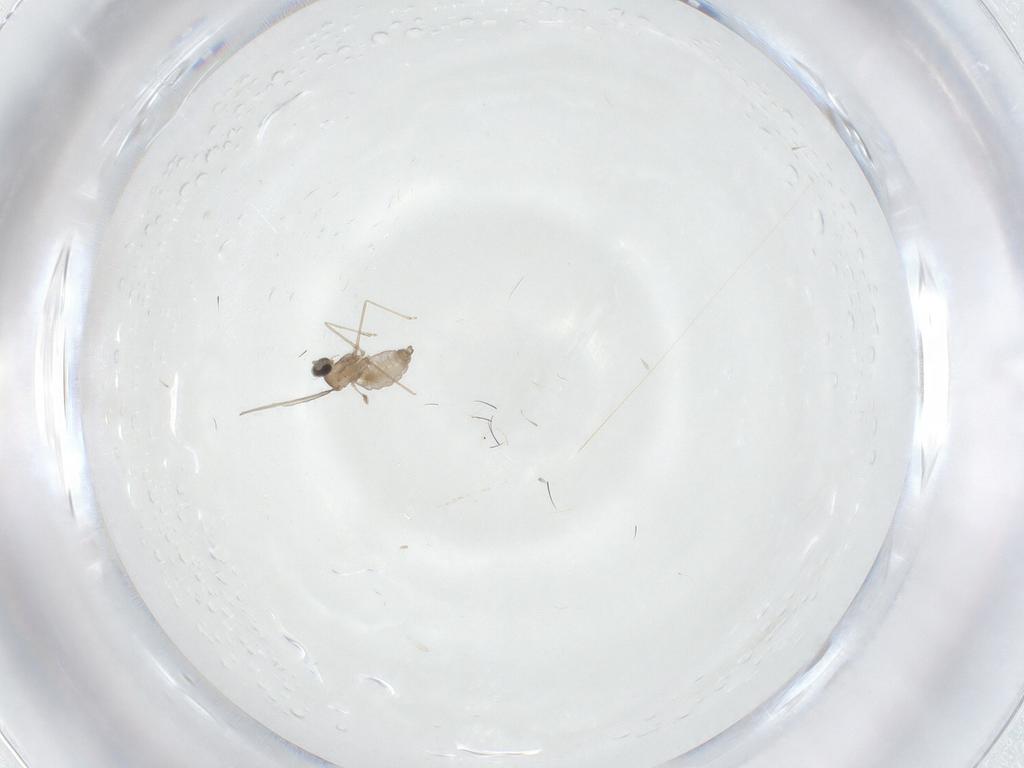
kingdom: Animalia
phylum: Arthropoda
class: Insecta
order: Diptera
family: Cecidomyiidae
